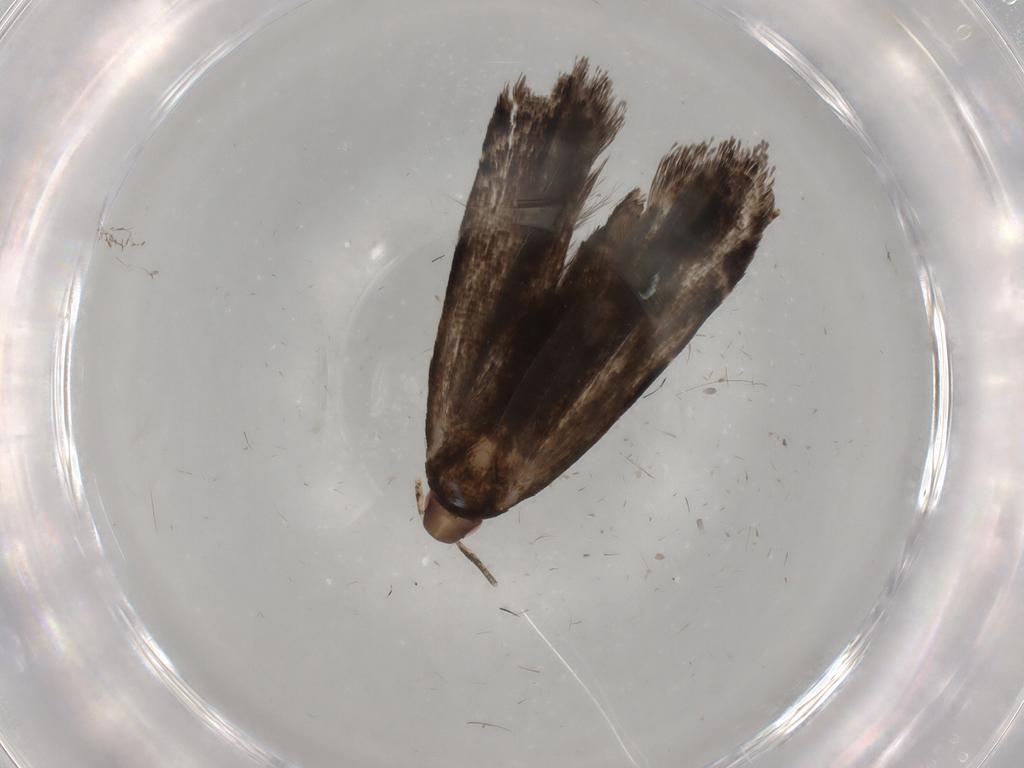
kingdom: Animalia
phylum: Arthropoda
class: Insecta
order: Lepidoptera
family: Gelechiidae
